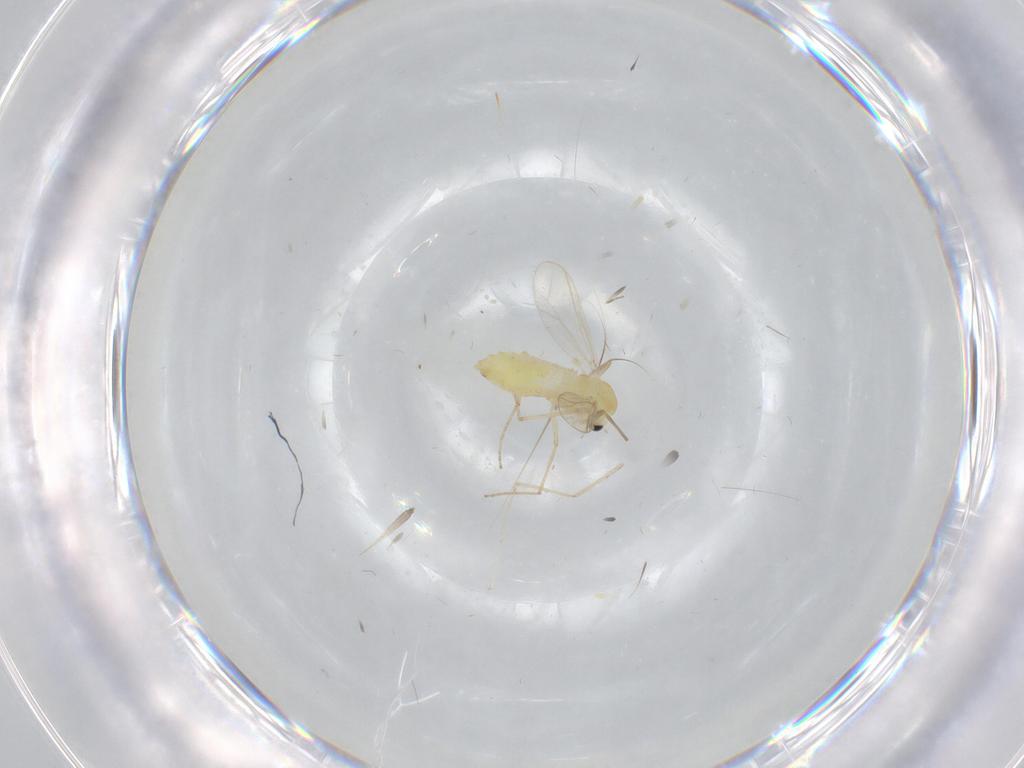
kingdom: Animalia
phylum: Arthropoda
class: Insecta
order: Diptera
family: Chironomidae
